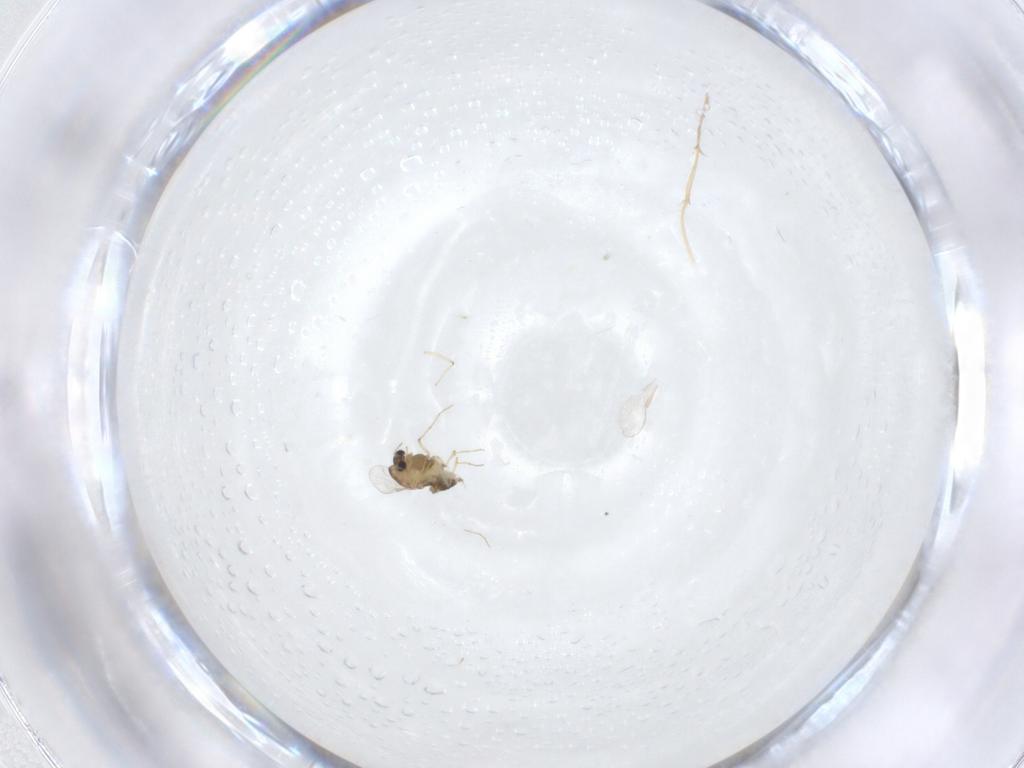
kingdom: Animalia
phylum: Arthropoda
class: Insecta
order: Diptera
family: Chironomidae
